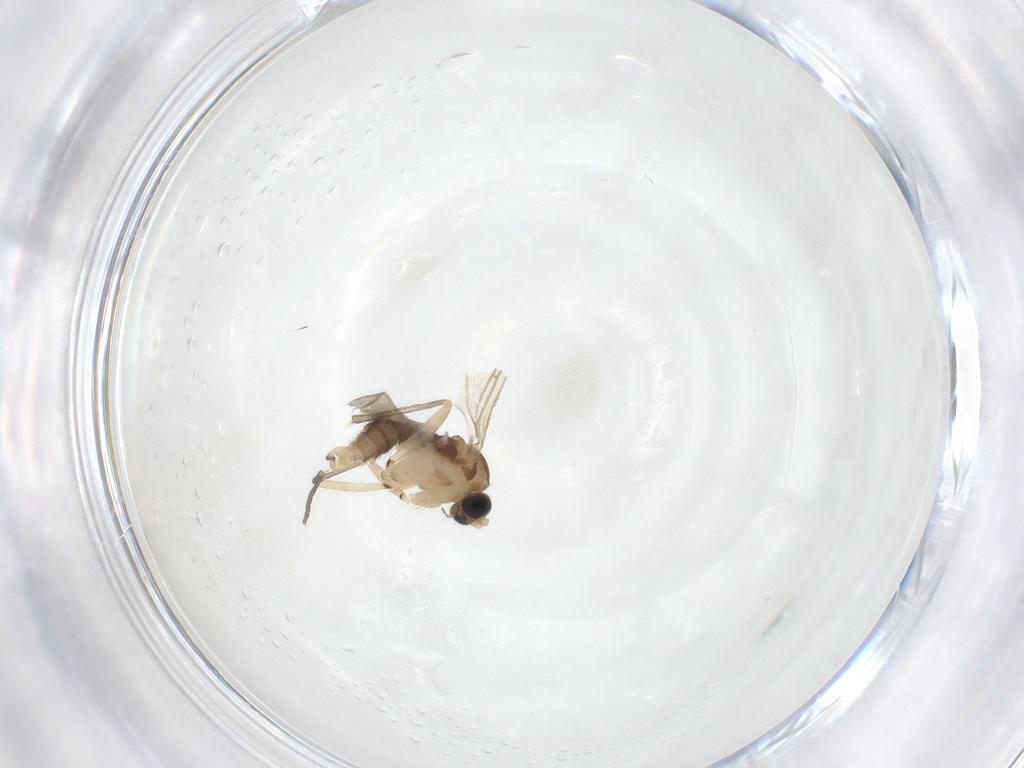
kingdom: Animalia
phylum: Arthropoda
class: Insecta
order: Diptera
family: Sciaridae
